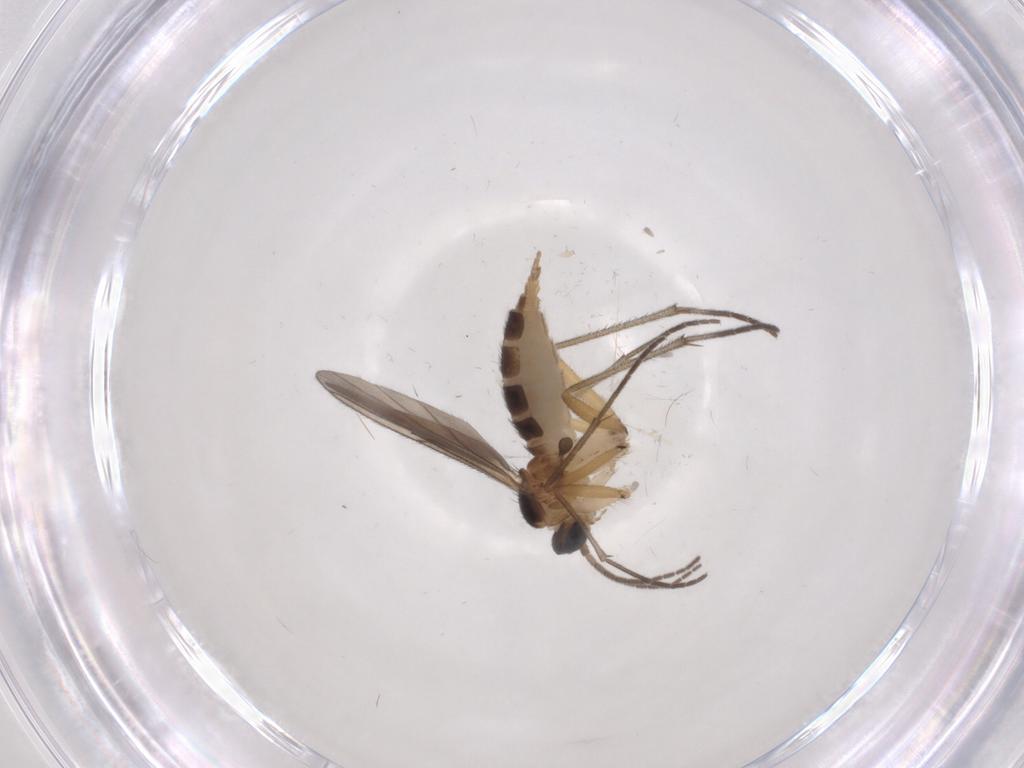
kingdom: Animalia
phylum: Arthropoda
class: Insecta
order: Diptera
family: Sciaridae
